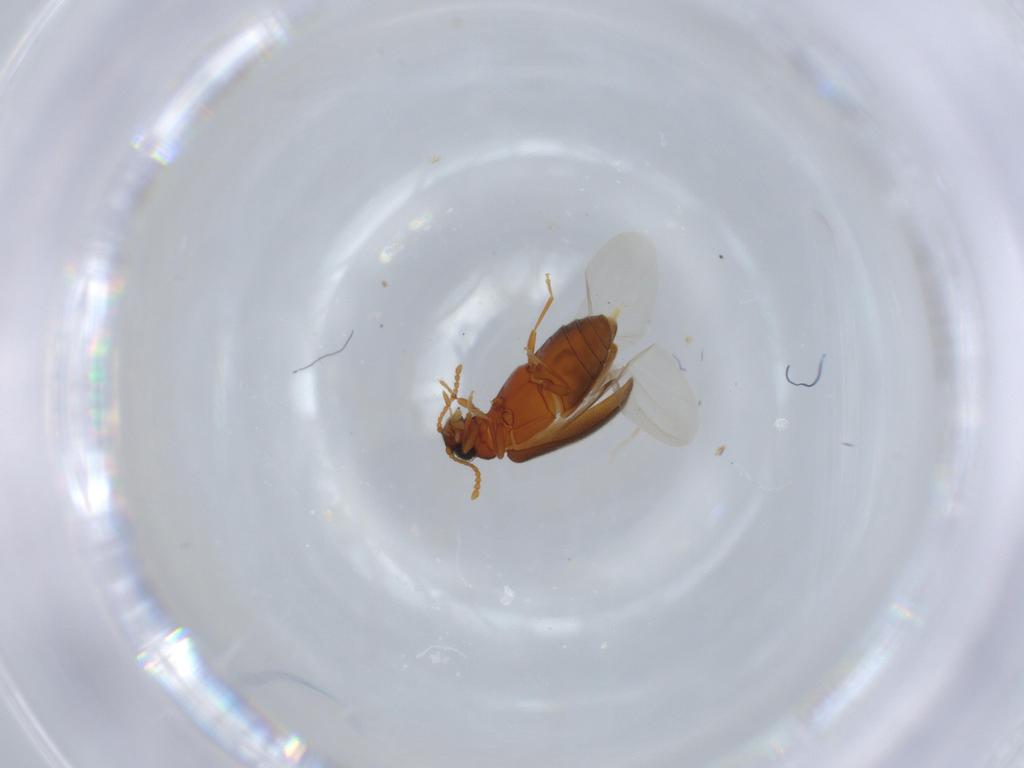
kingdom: Animalia
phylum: Arthropoda
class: Insecta
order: Coleoptera
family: Aderidae
